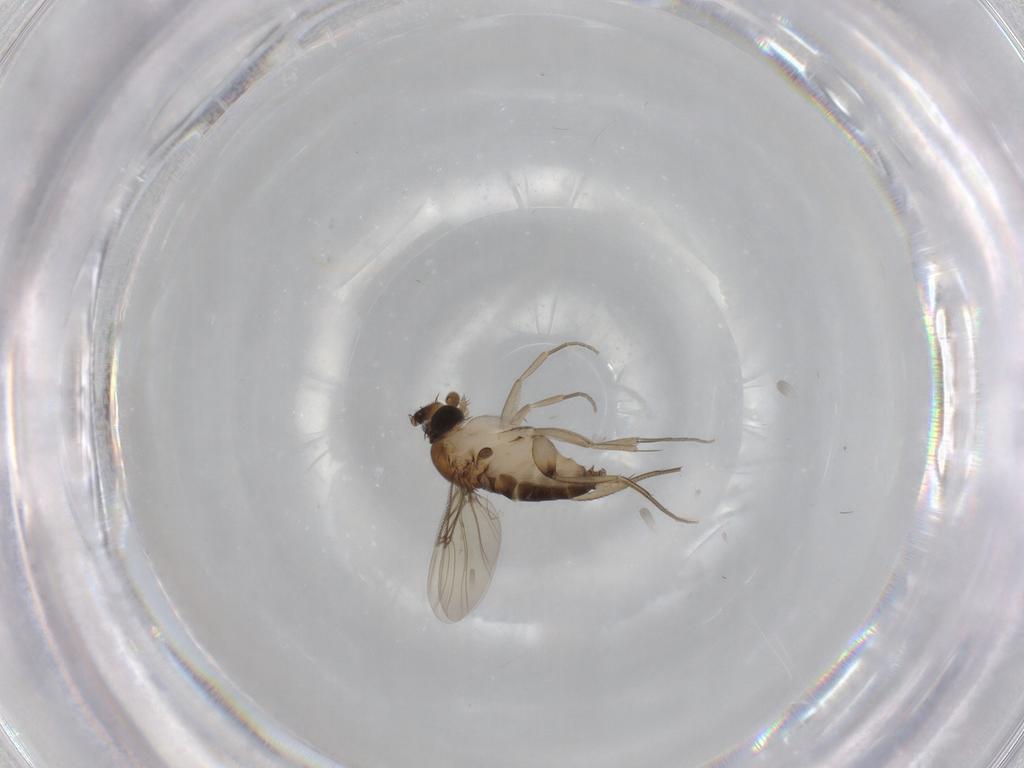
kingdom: Animalia
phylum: Arthropoda
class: Insecta
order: Diptera
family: Phoridae
